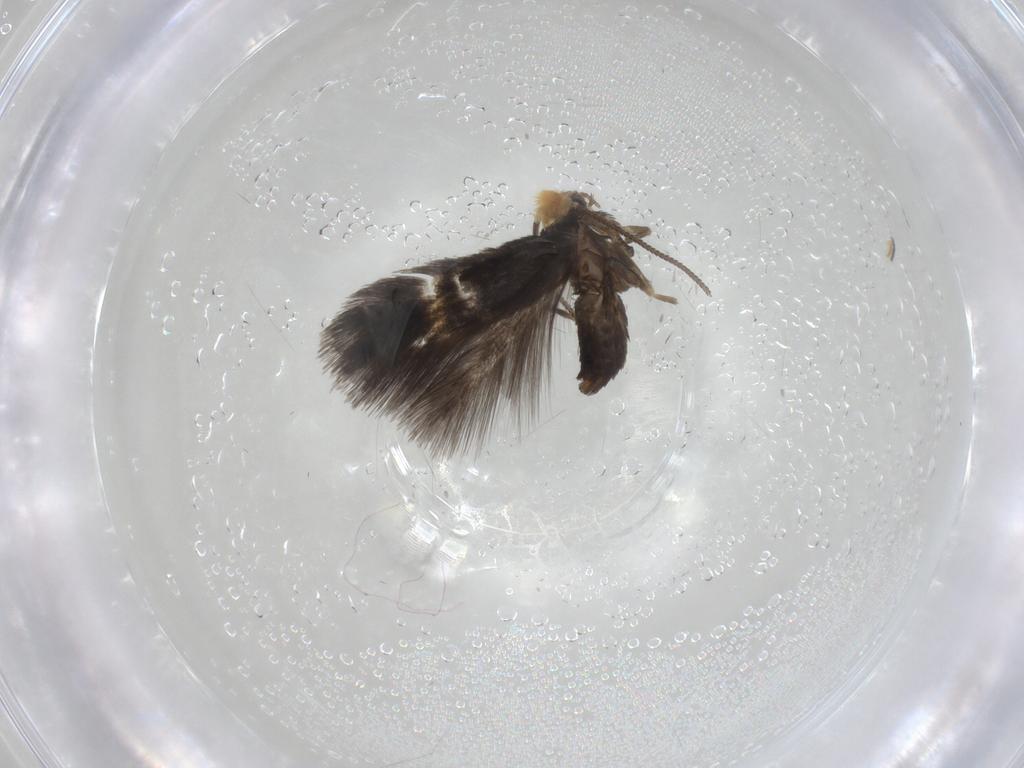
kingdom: Animalia
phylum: Arthropoda
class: Insecta
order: Lepidoptera
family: Nepticulidae
